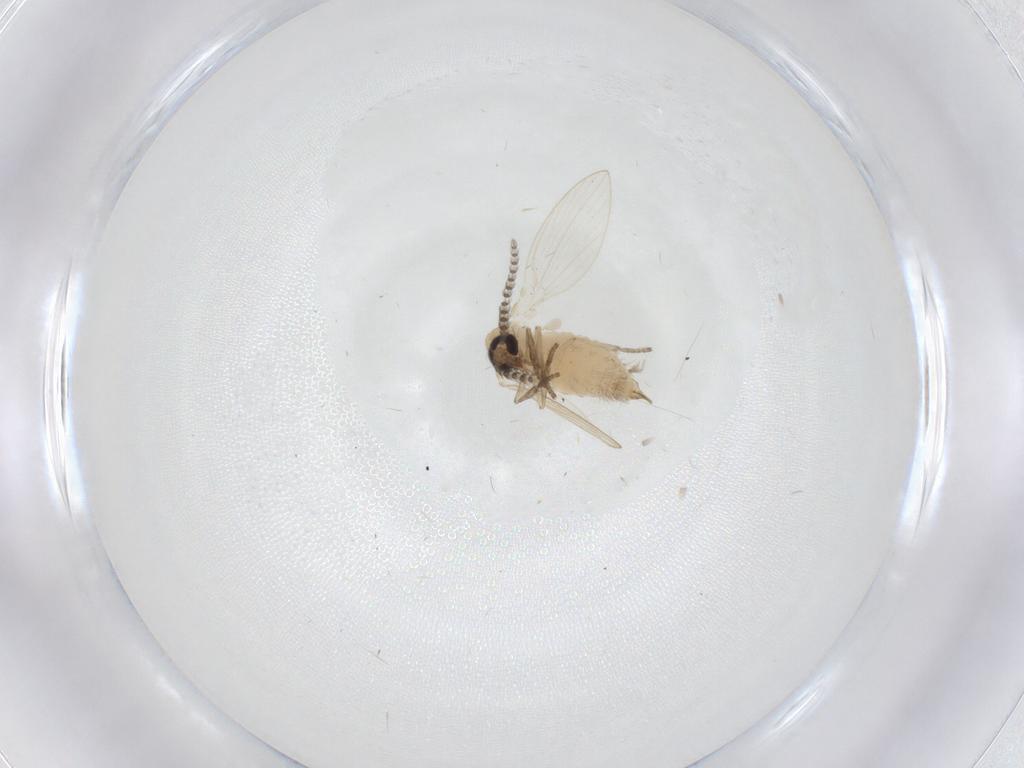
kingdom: Animalia
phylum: Arthropoda
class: Insecta
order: Diptera
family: Psychodidae
